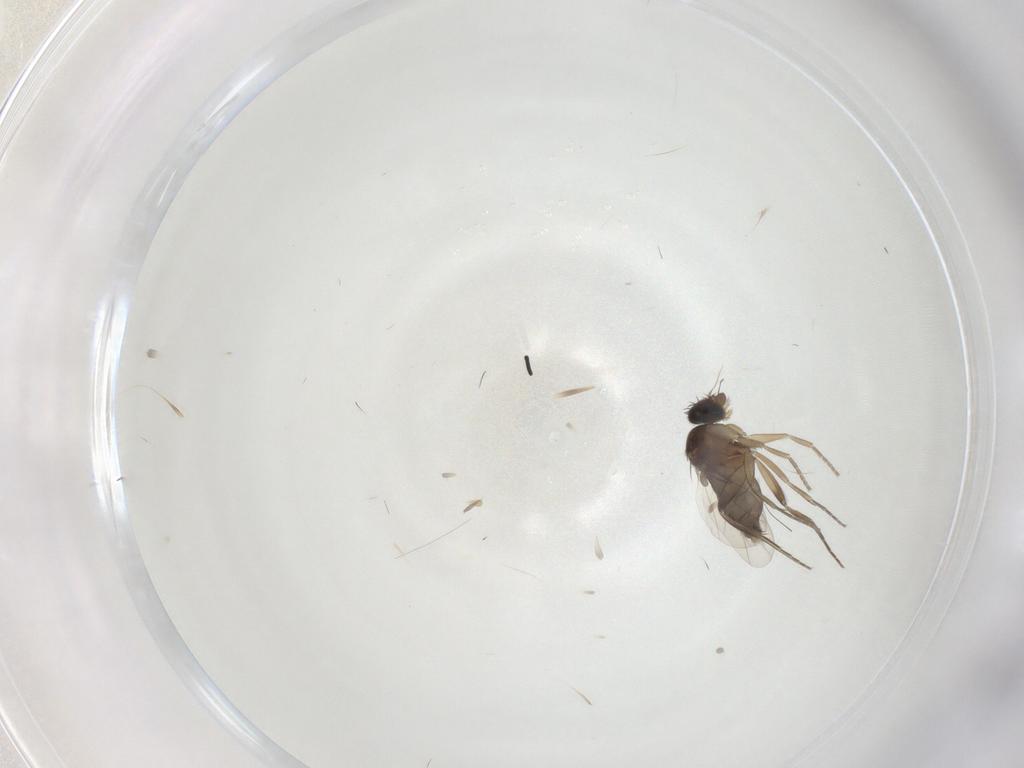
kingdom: Animalia
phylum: Arthropoda
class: Insecta
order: Diptera
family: Phoridae
